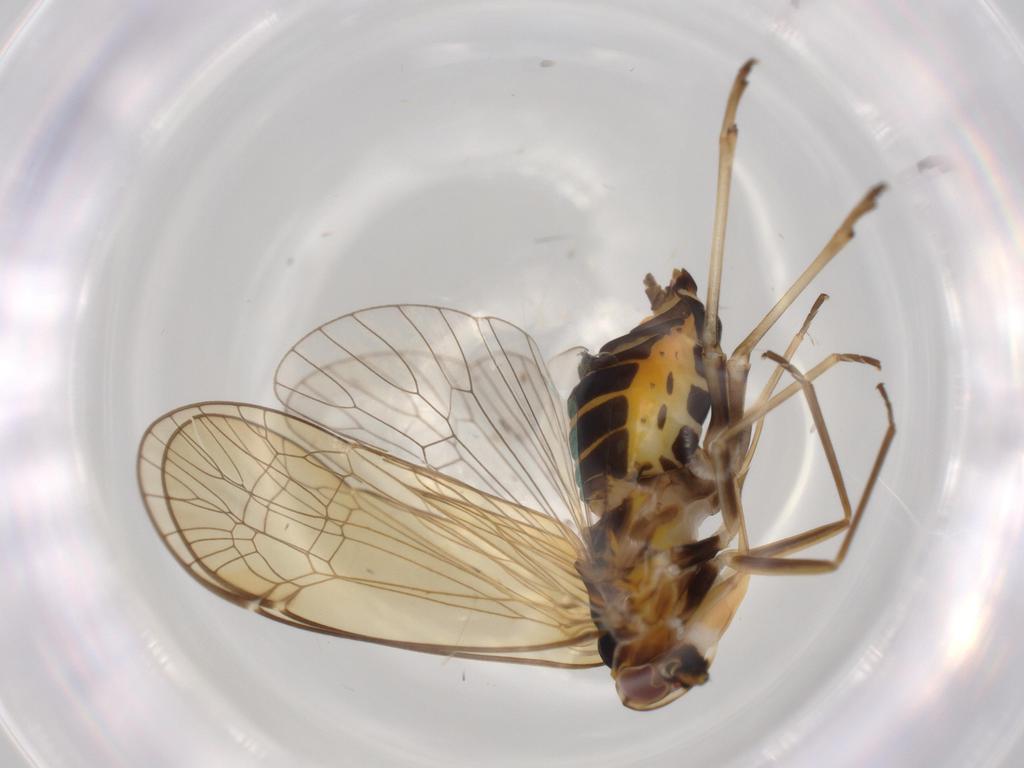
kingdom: Animalia
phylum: Arthropoda
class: Insecta
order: Hemiptera
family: Kinnaridae
